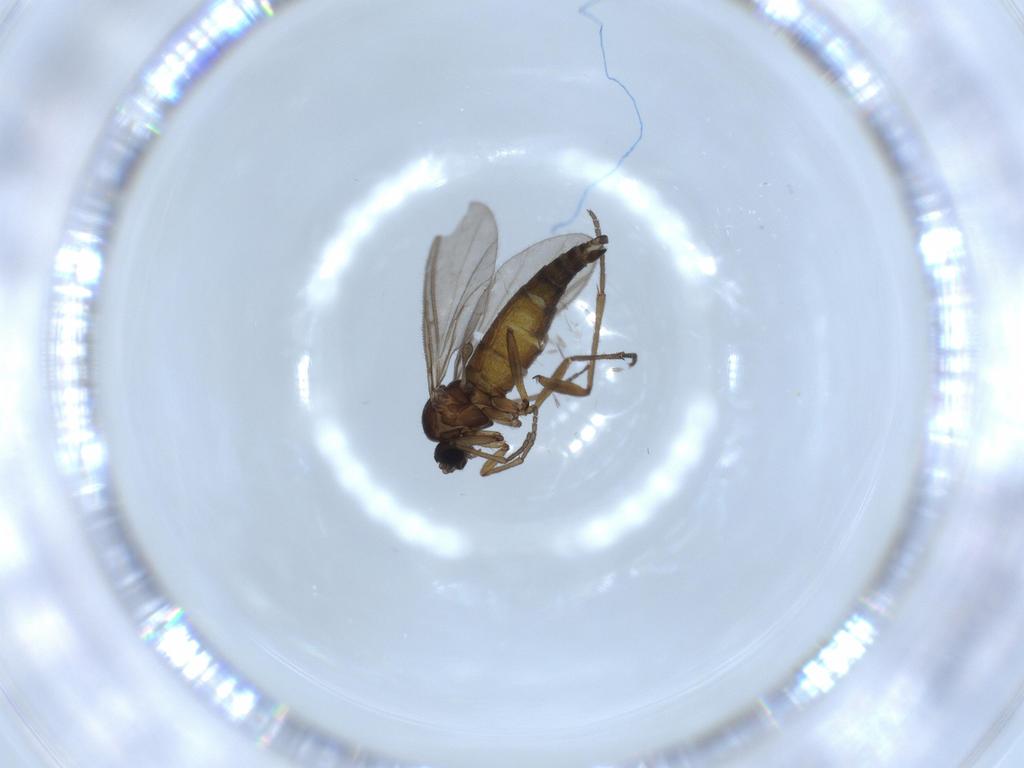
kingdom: Animalia
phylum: Arthropoda
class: Insecta
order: Diptera
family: Sciaridae
